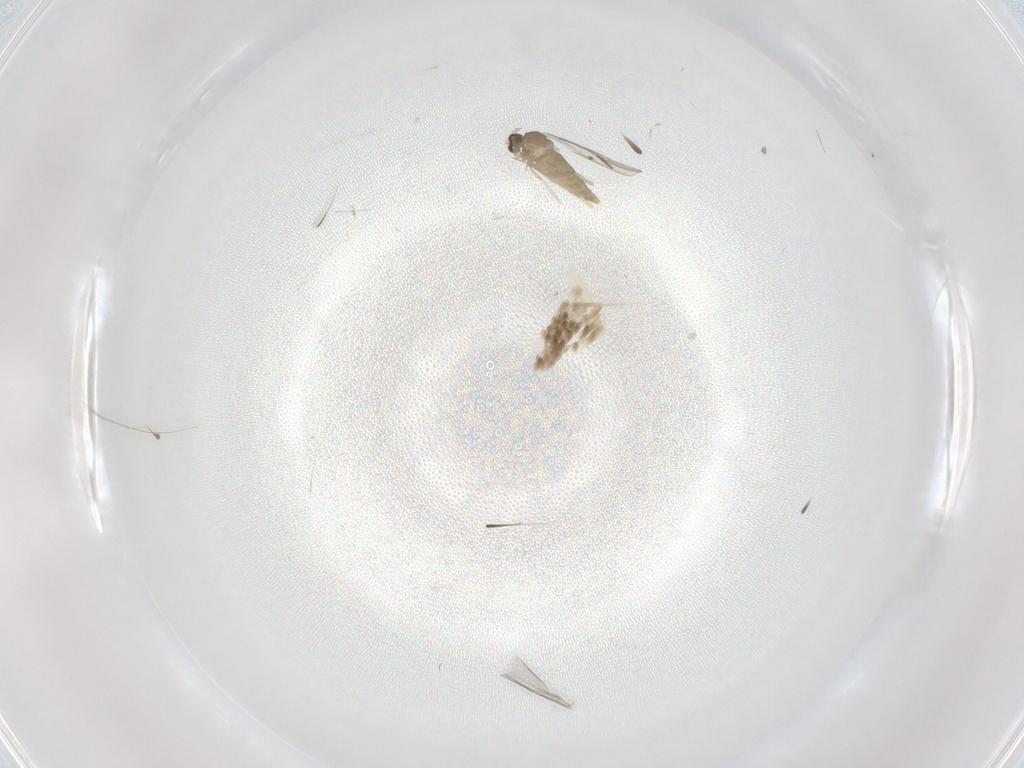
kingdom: Animalia
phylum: Arthropoda
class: Insecta
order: Diptera
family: Cecidomyiidae
